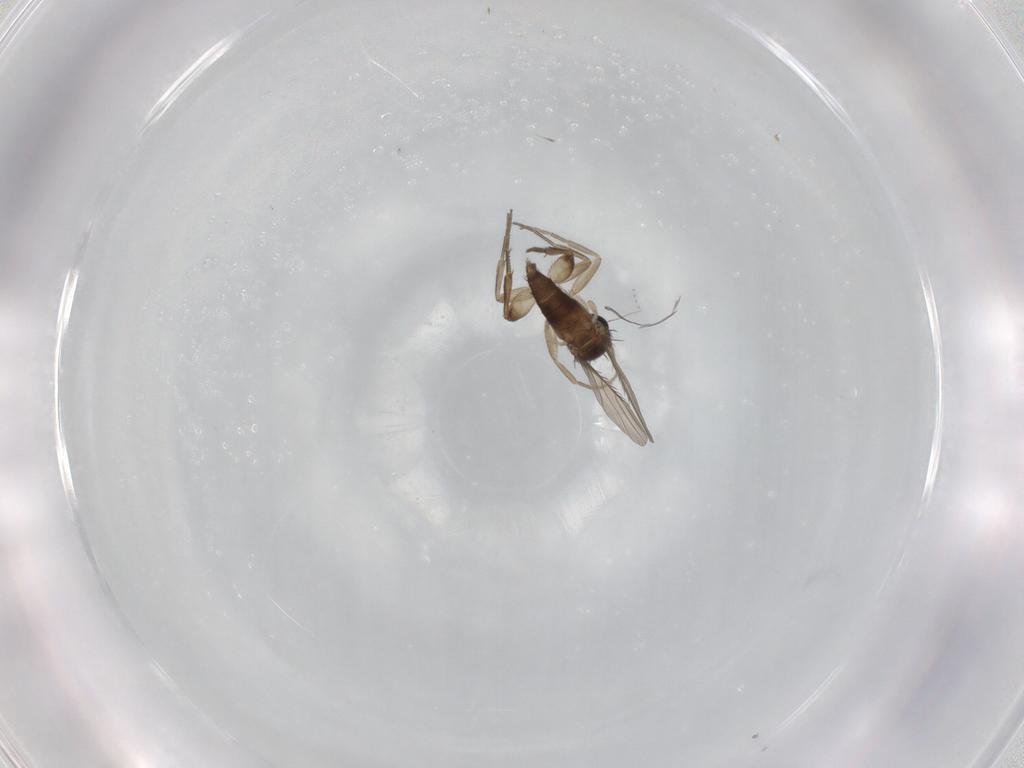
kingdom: Animalia
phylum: Arthropoda
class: Insecta
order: Diptera
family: Phoridae
